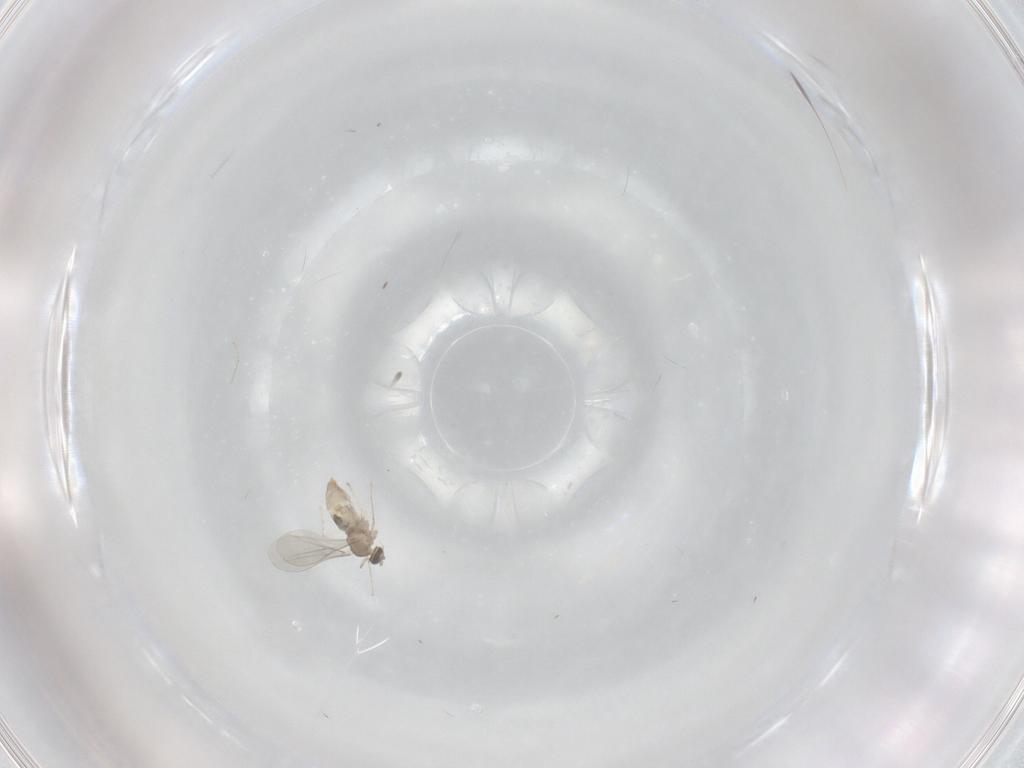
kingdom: Animalia
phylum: Arthropoda
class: Insecta
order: Diptera
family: Cecidomyiidae
